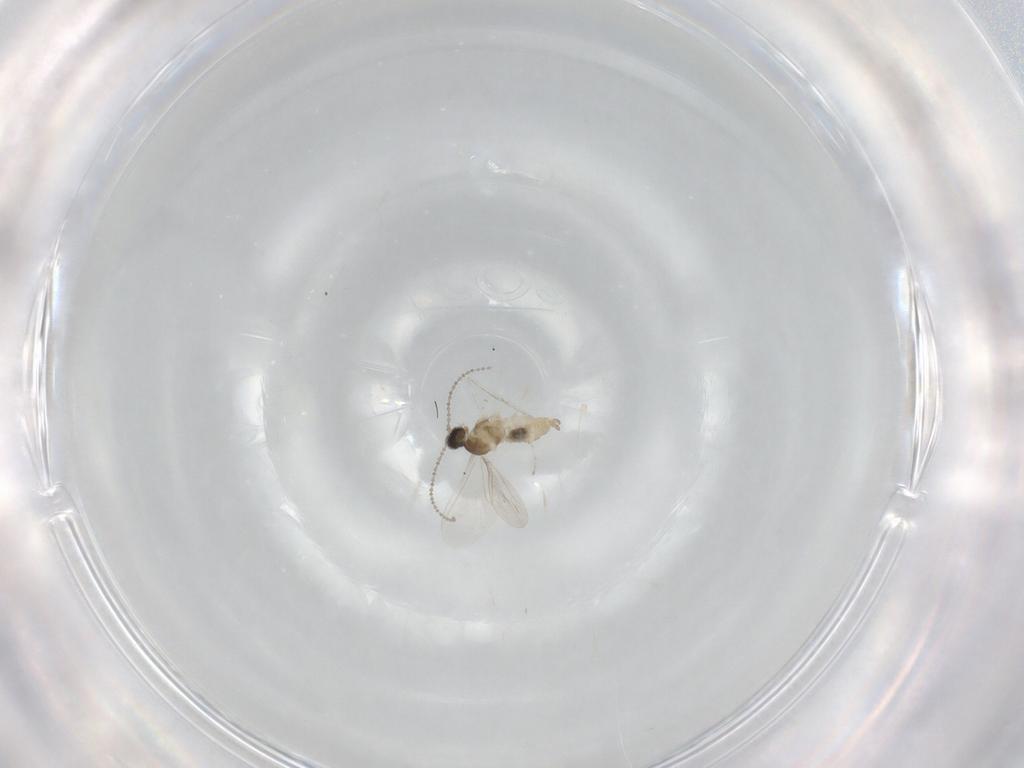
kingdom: Animalia
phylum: Arthropoda
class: Insecta
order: Diptera
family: Cecidomyiidae
